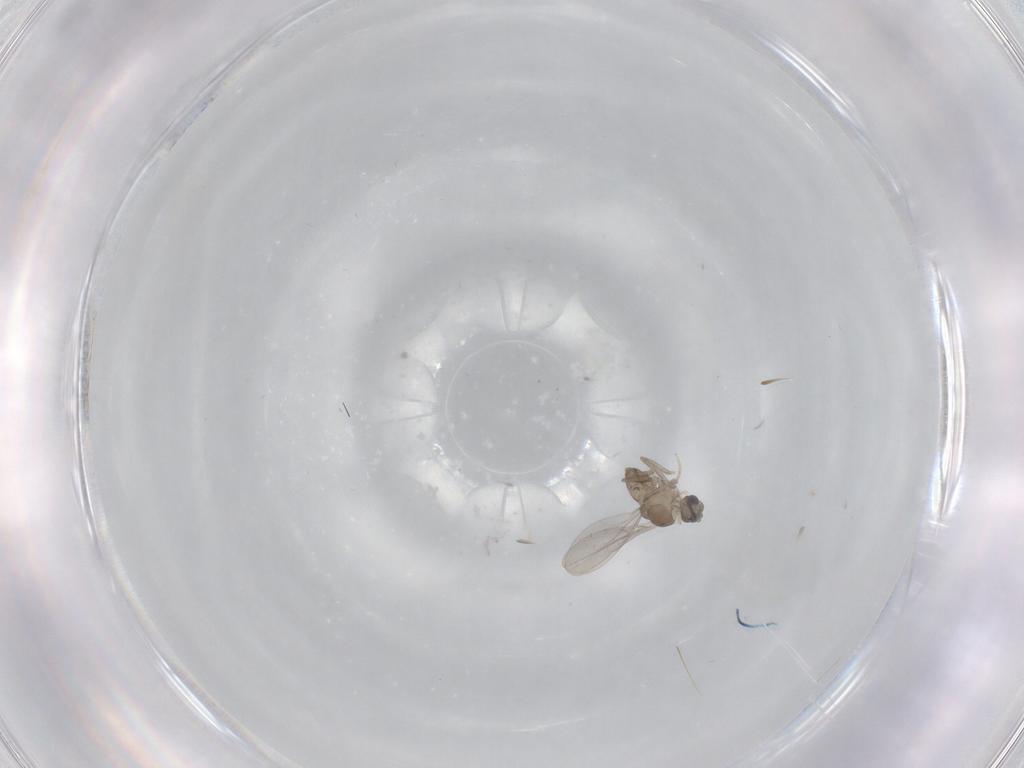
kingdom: Animalia
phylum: Arthropoda
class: Insecta
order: Diptera
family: Cecidomyiidae
